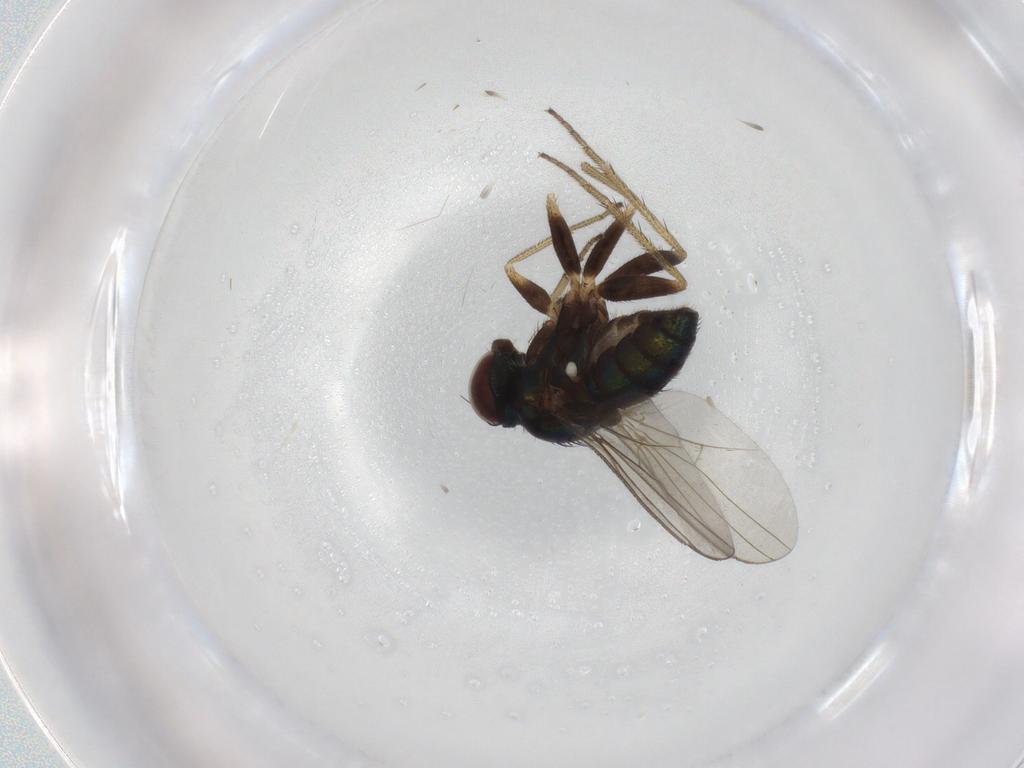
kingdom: Animalia
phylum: Arthropoda
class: Insecta
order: Diptera
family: Chironomidae
